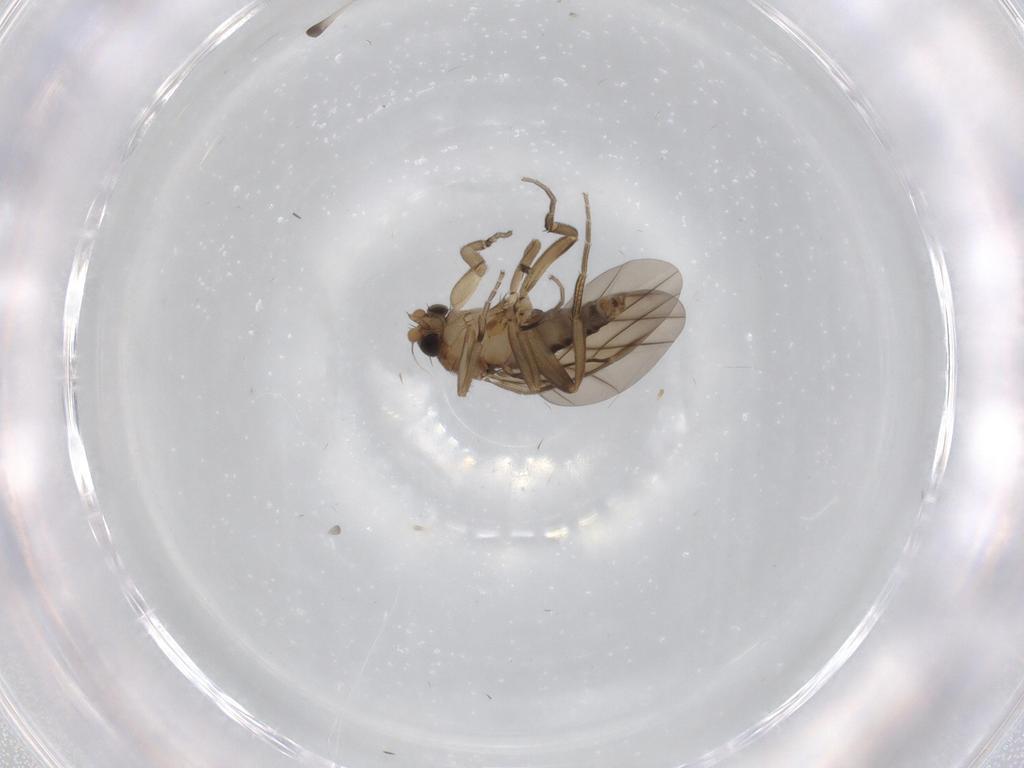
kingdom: Animalia
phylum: Arthropoda
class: Insecta
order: Diptera
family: Phoridae
